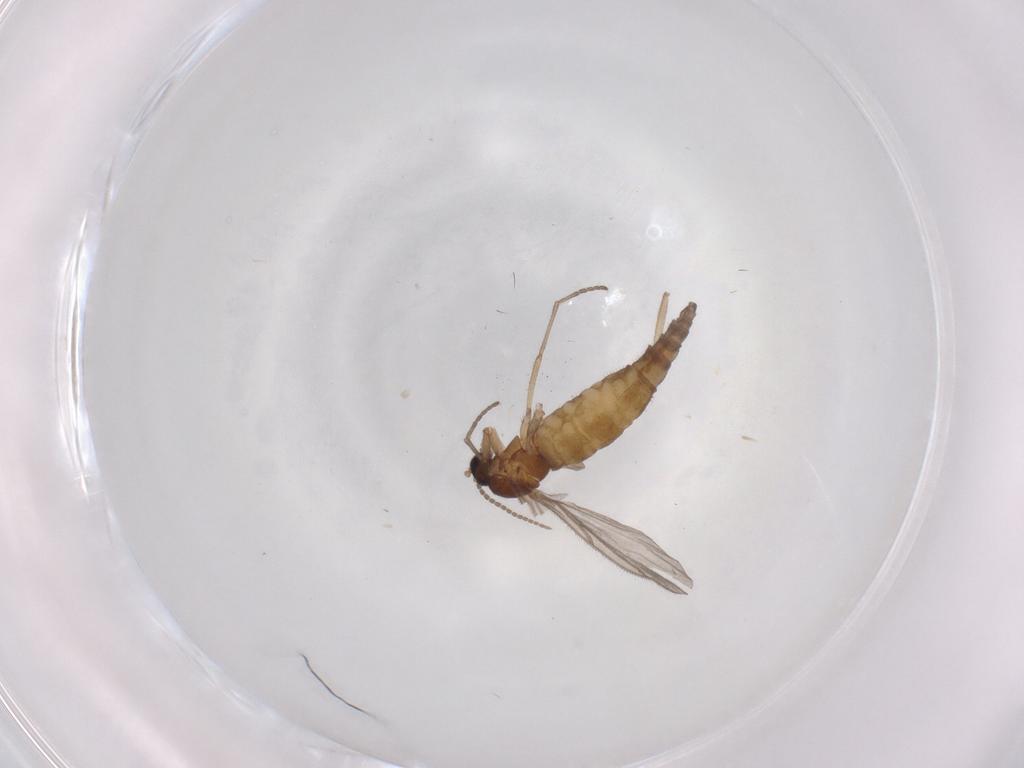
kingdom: Animalia
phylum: Arthropoda
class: Insecta
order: Diptera
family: Sciaridae
